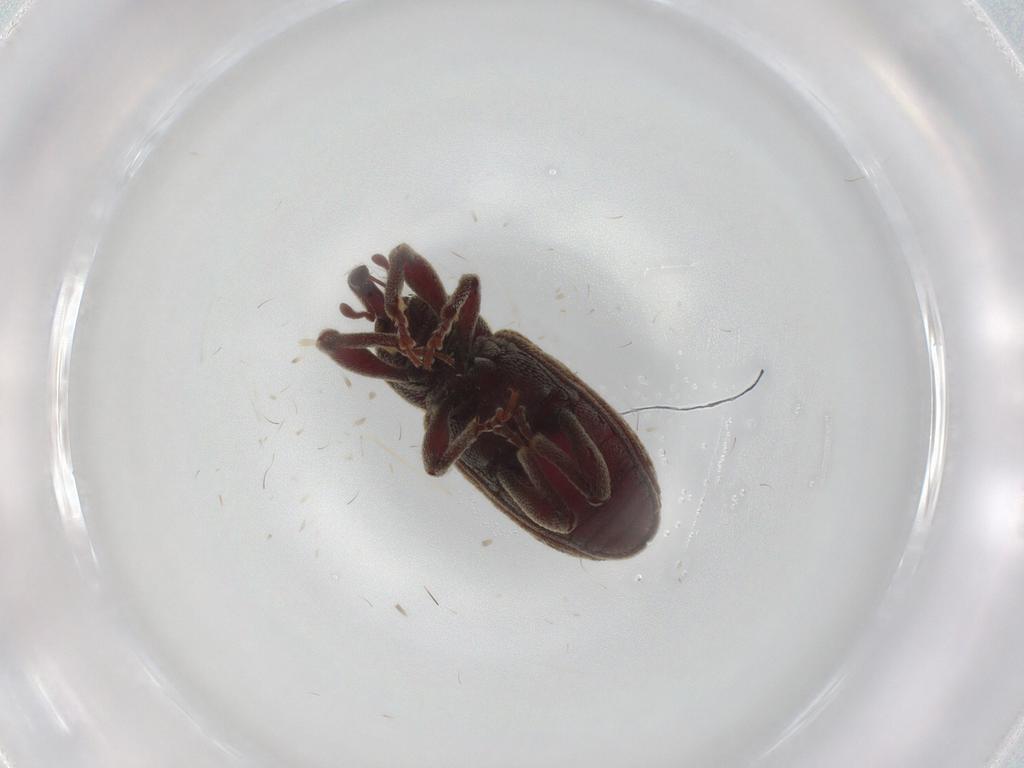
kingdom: Animalia
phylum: Arthropoda
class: Insecta
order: Coleoptera
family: Curculionidae
